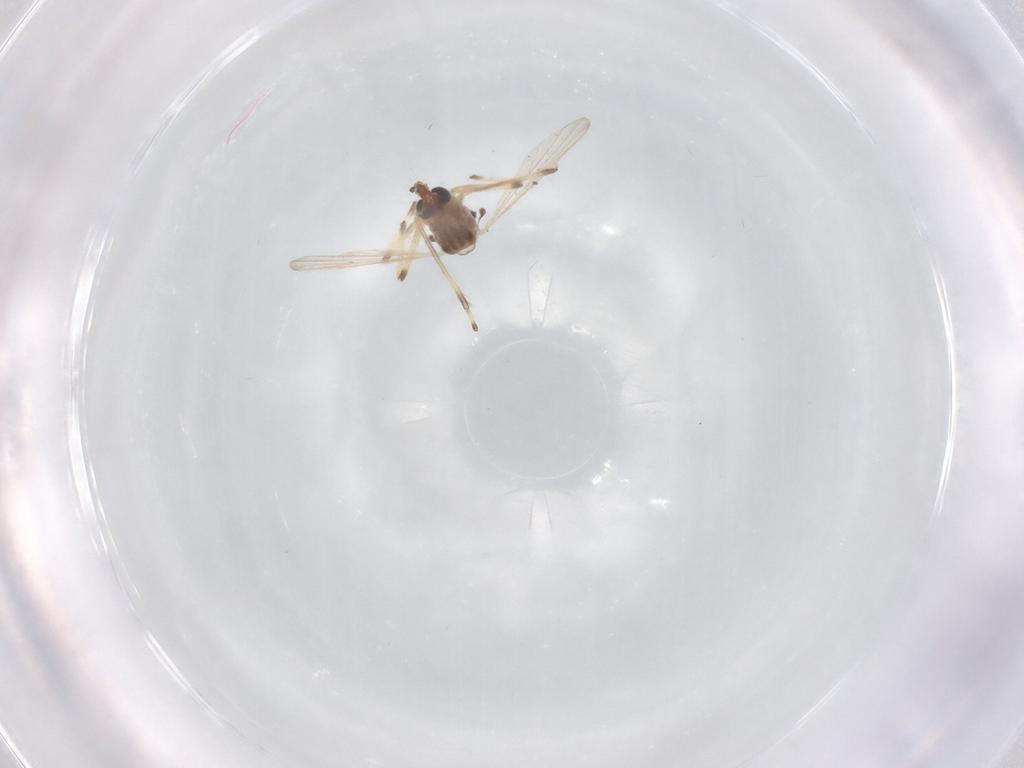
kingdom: Animalia
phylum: Arthropoda
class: Insecta
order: Diptera
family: Chironomidae
